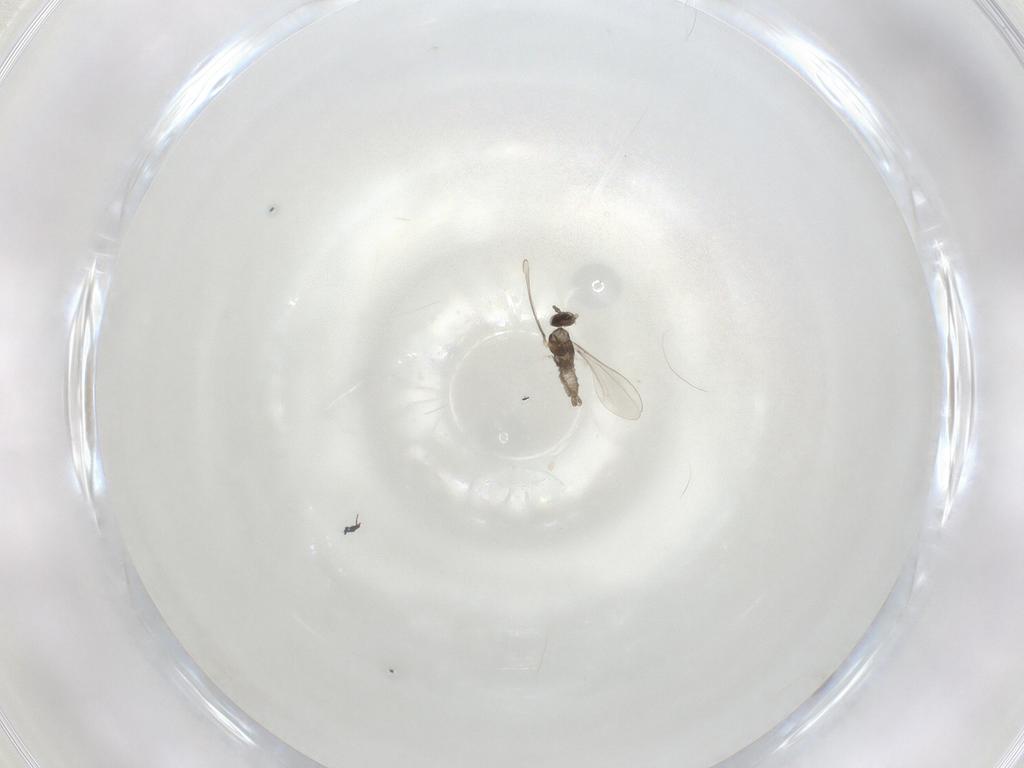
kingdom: Animalia
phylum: Arthropoda
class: Insecta
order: Diptera
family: Cecidomyiidae
